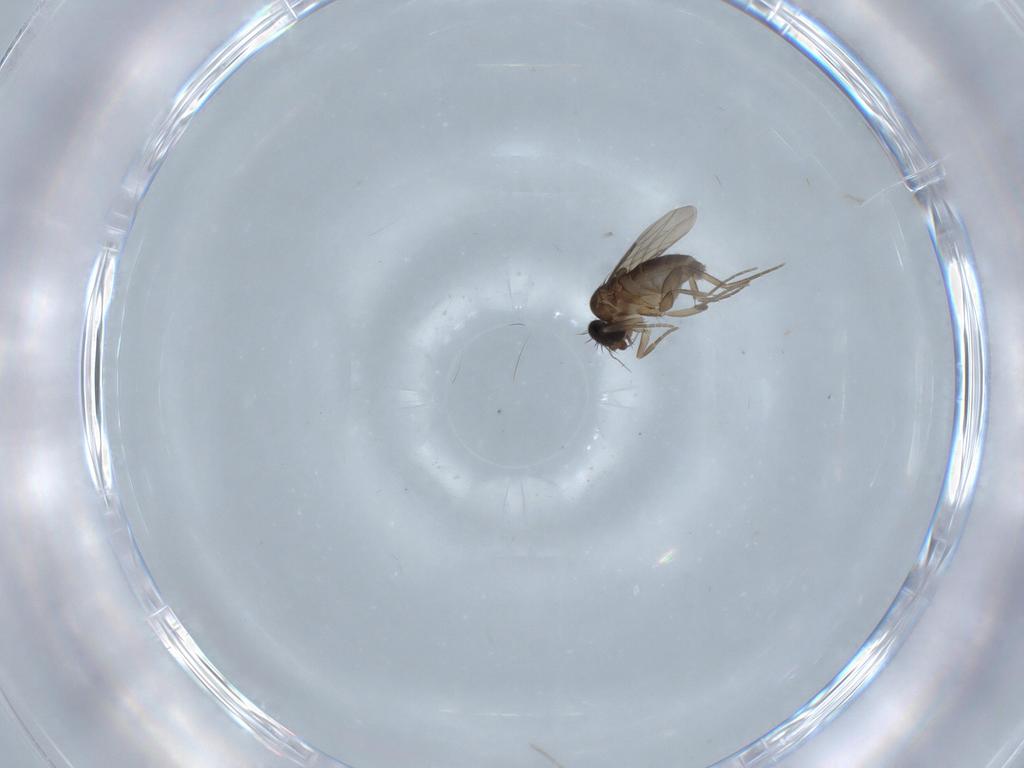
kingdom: Animalia
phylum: Arthropoda
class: Insecta
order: Diptera
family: Phoridae
